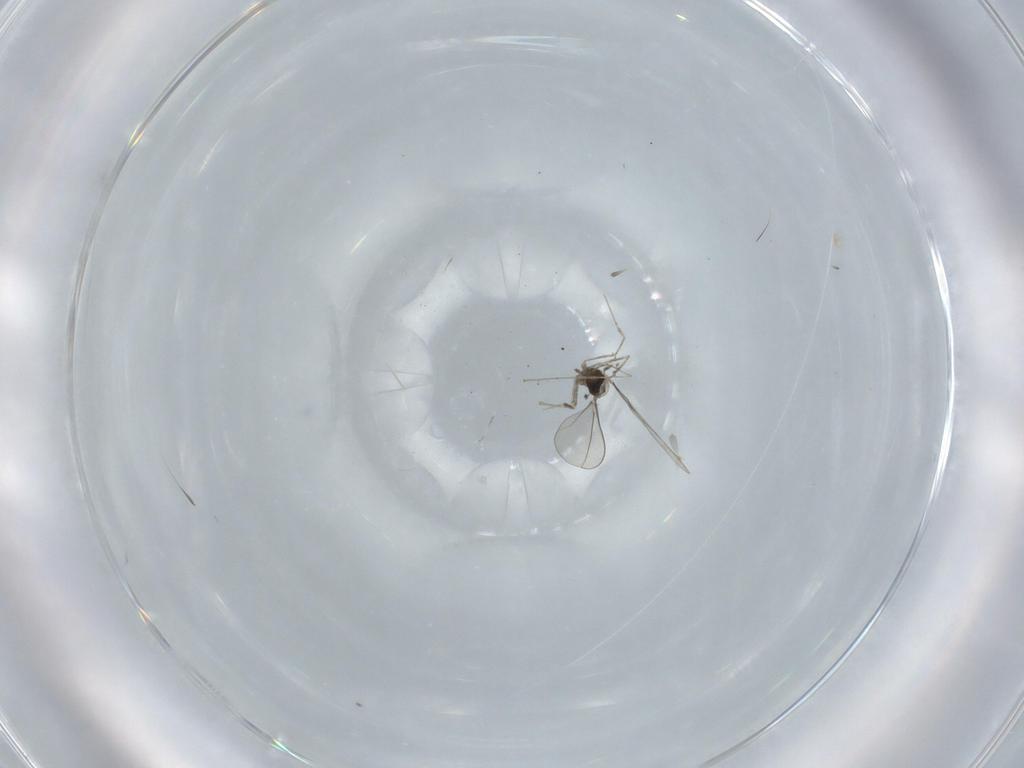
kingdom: Animalia
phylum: Arthropoda
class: Insecta
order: Diptera
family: Cecidomyiidae
